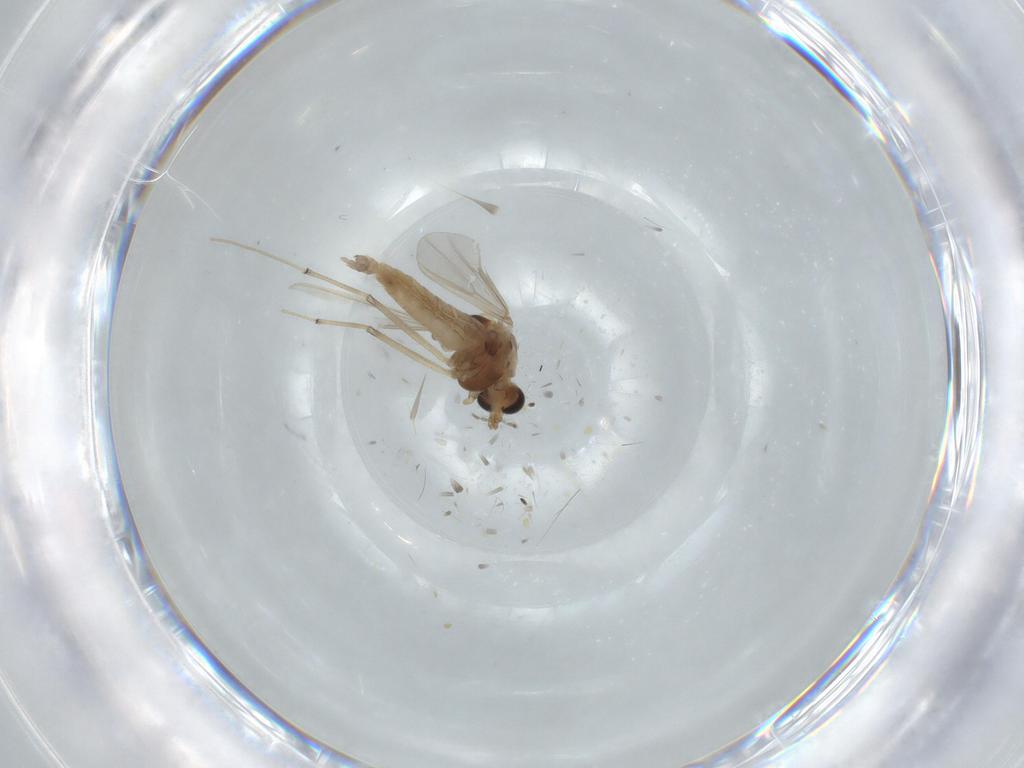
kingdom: Animalia
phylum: Arthropoda
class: Insecta
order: Diptera
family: Chironomidae
